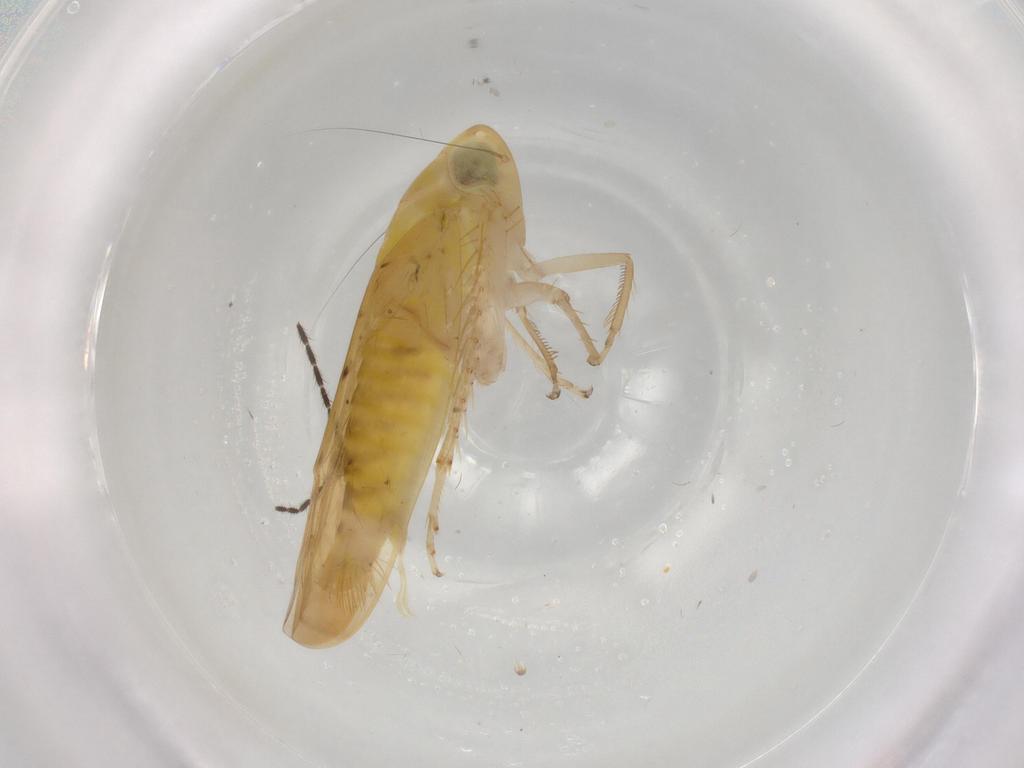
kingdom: Animalia
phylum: Arthropoda
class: Insecta
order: Hemiptera
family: Cicadellidae
